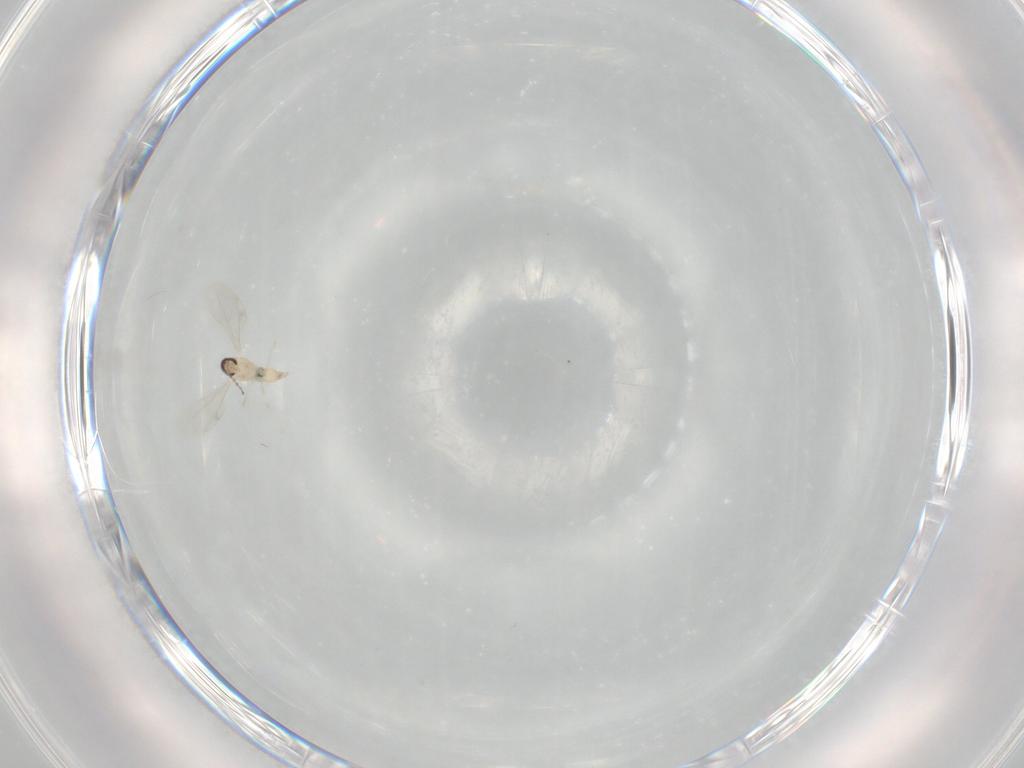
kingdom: Animalia
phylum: Arthropoda
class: Insecta
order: Diptera
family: Cecidomyiidae
